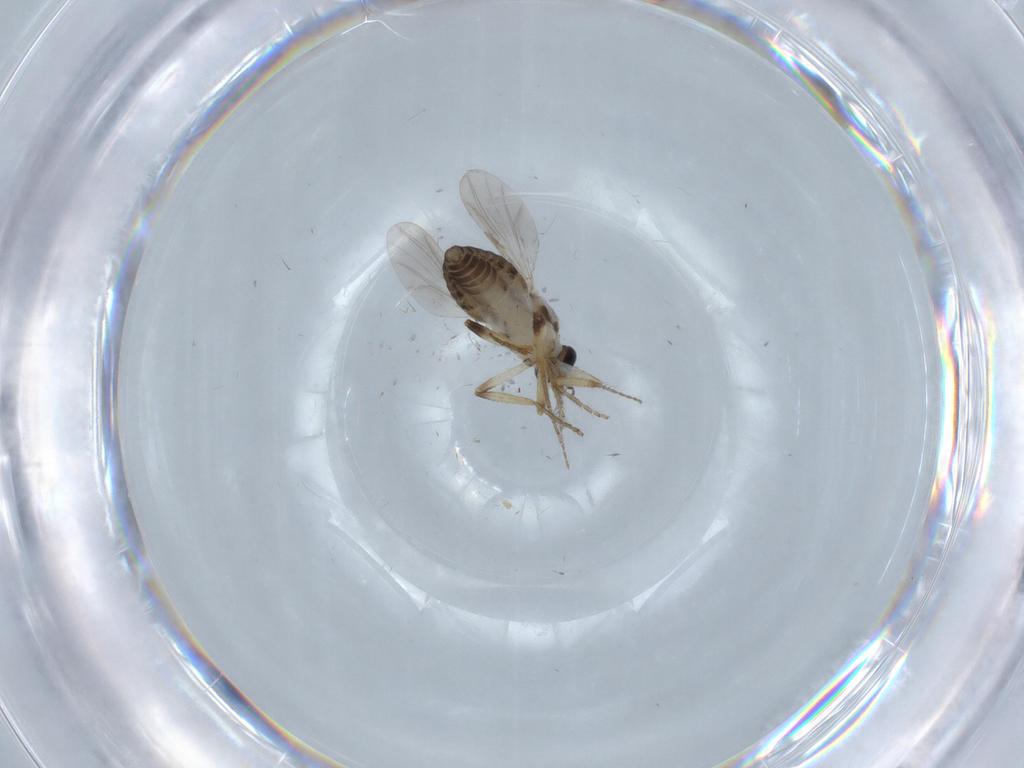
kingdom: Animalia
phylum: Arthropoda
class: Insecta
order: Diptera
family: Ceratopogonidae
